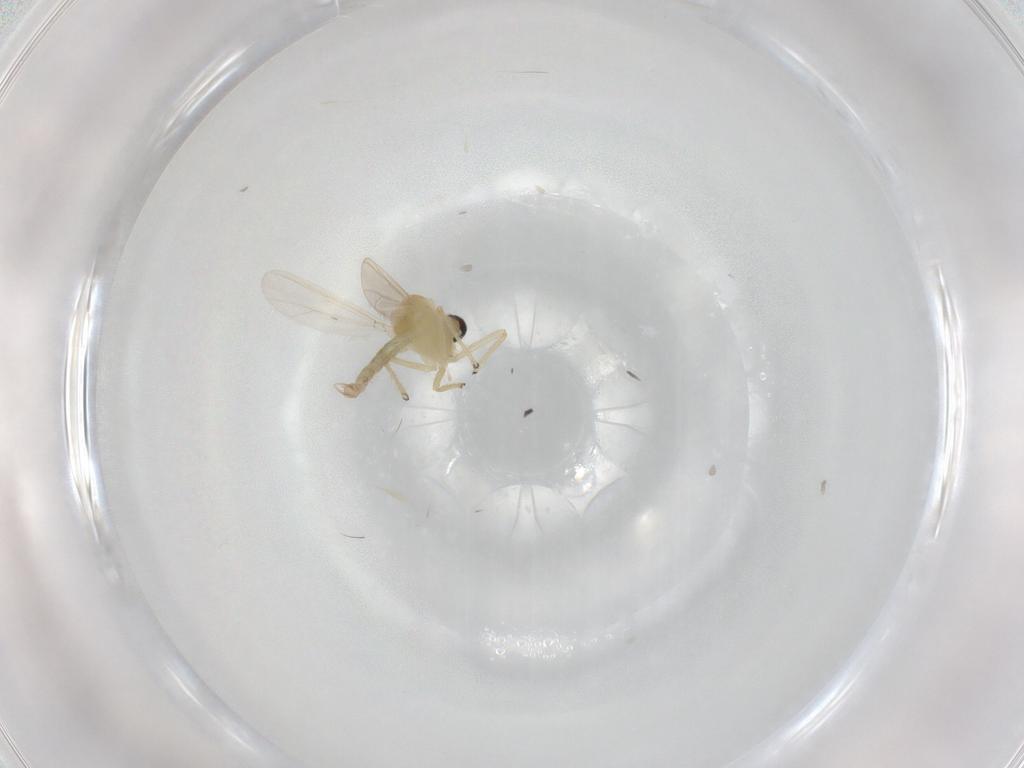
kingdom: Animalia
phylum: Arthropoda
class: Insecta
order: Diptera
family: Chironomidae
